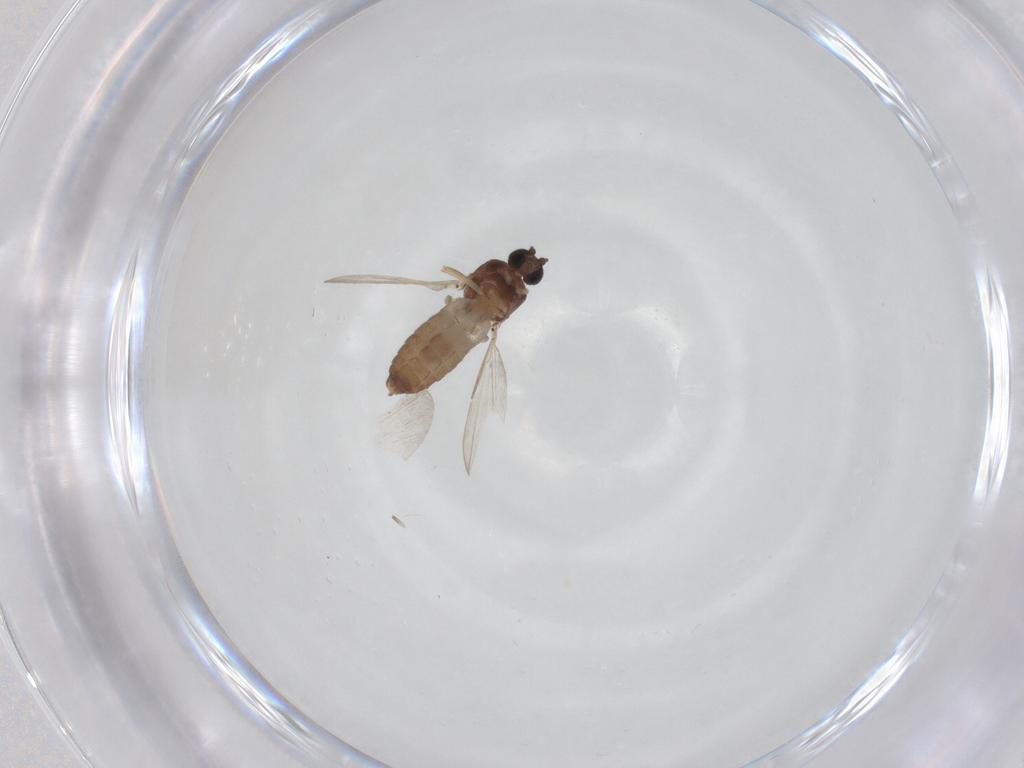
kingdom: Animalia
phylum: Arthropoda
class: Insecta
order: Diptera
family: Ceratopogonidae
